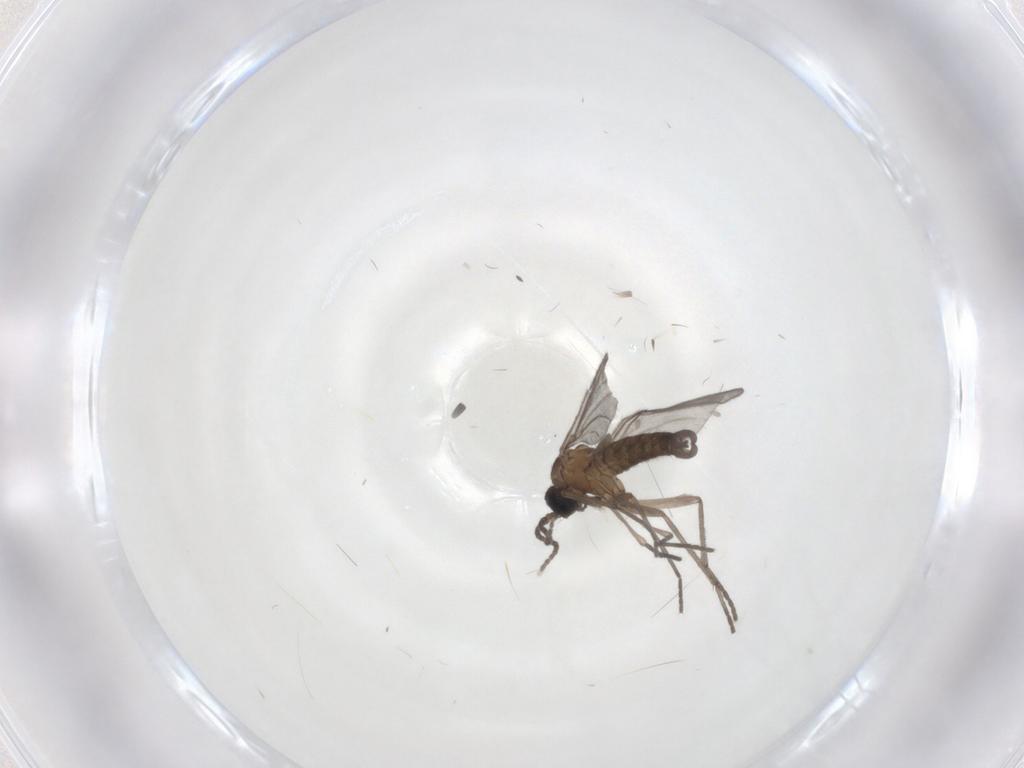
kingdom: Animalia
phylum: Arthropoda
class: Insecta
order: Diptera
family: Sciaridae
